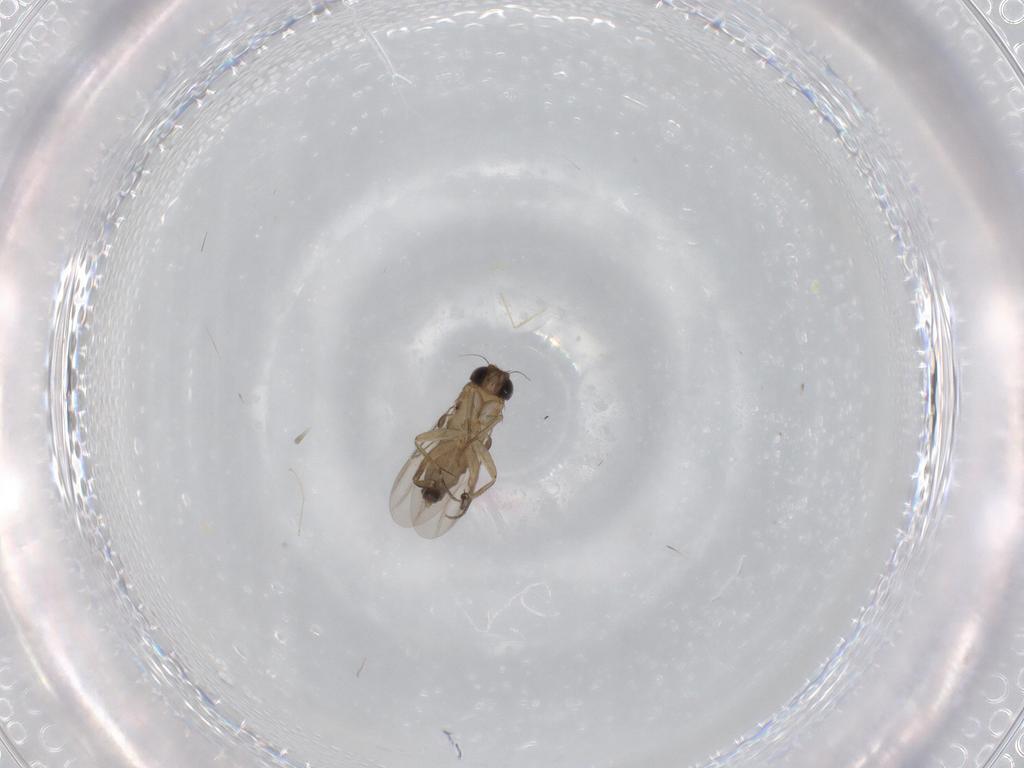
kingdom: Animalia
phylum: Arthropoda
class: Insecta
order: Diptera
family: Phoridae
